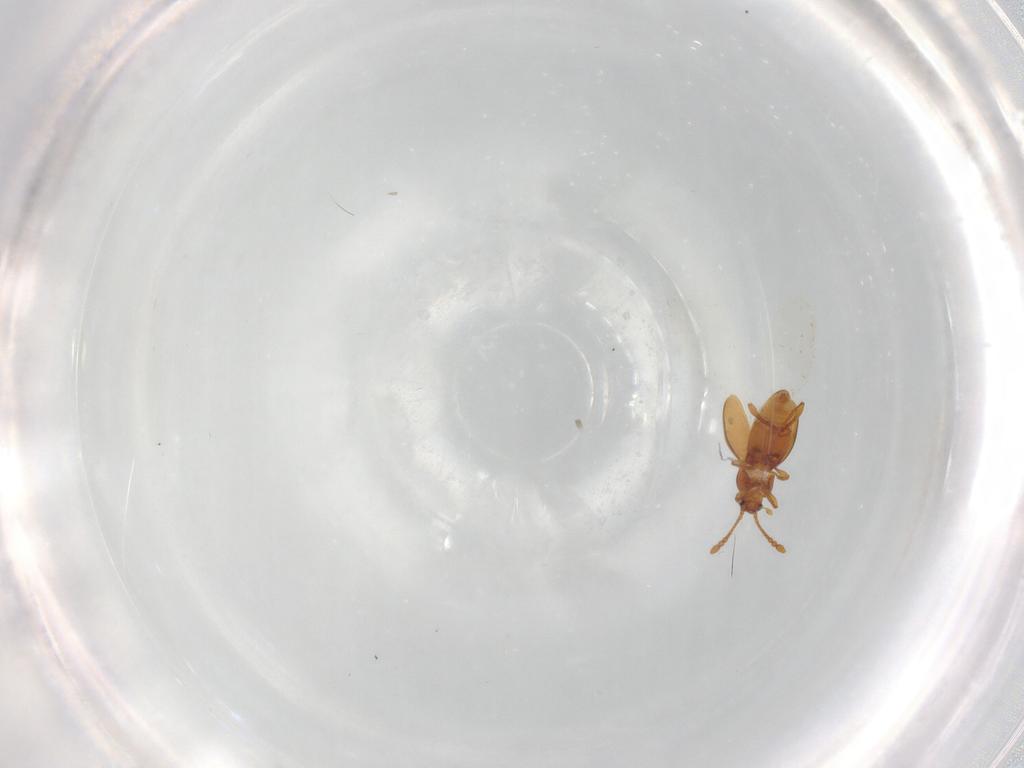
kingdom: Animalia
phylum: Arthropoda
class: Insecta
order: Coleoptera
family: Staphylinidae
